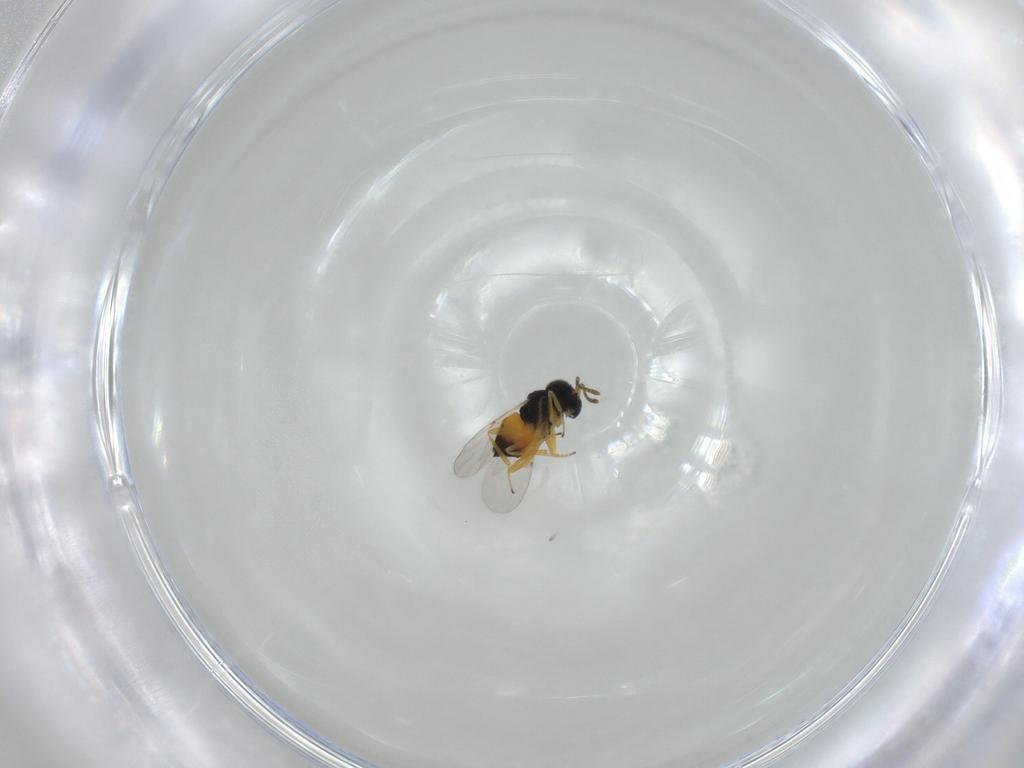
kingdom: Animalia
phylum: Arthropoda
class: Insecta
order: Hymenoptera
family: Encyrtidae
